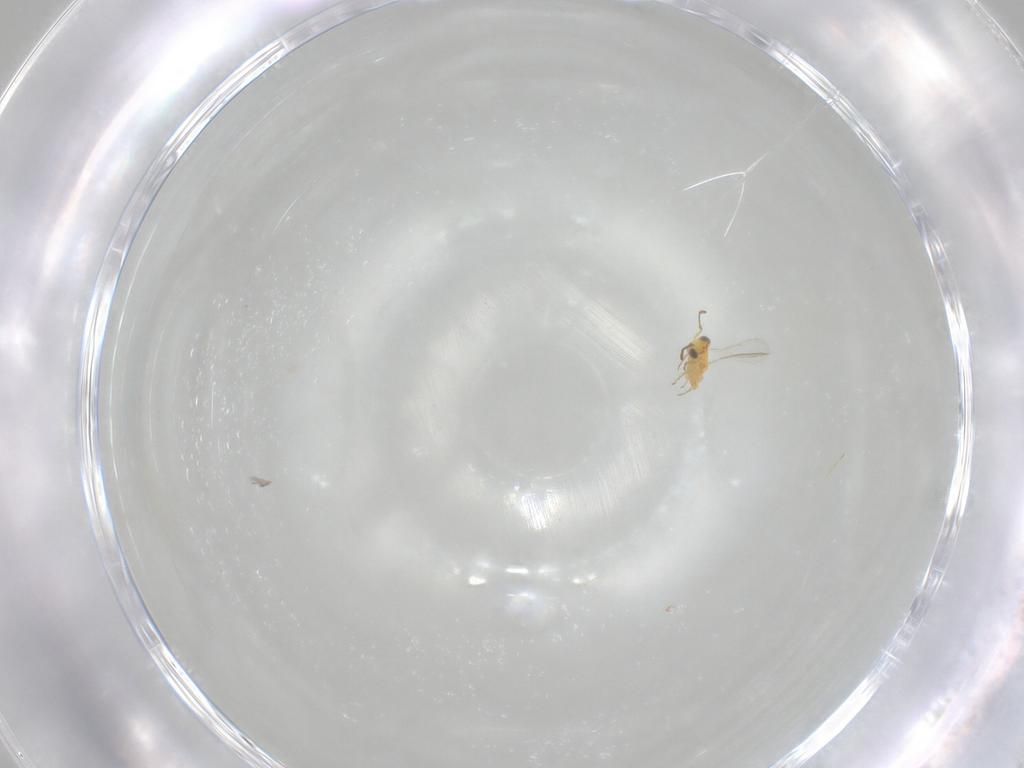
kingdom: Animalia
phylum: Arthropoda
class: Insecta
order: Hymenoptera
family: Aphelinidae
